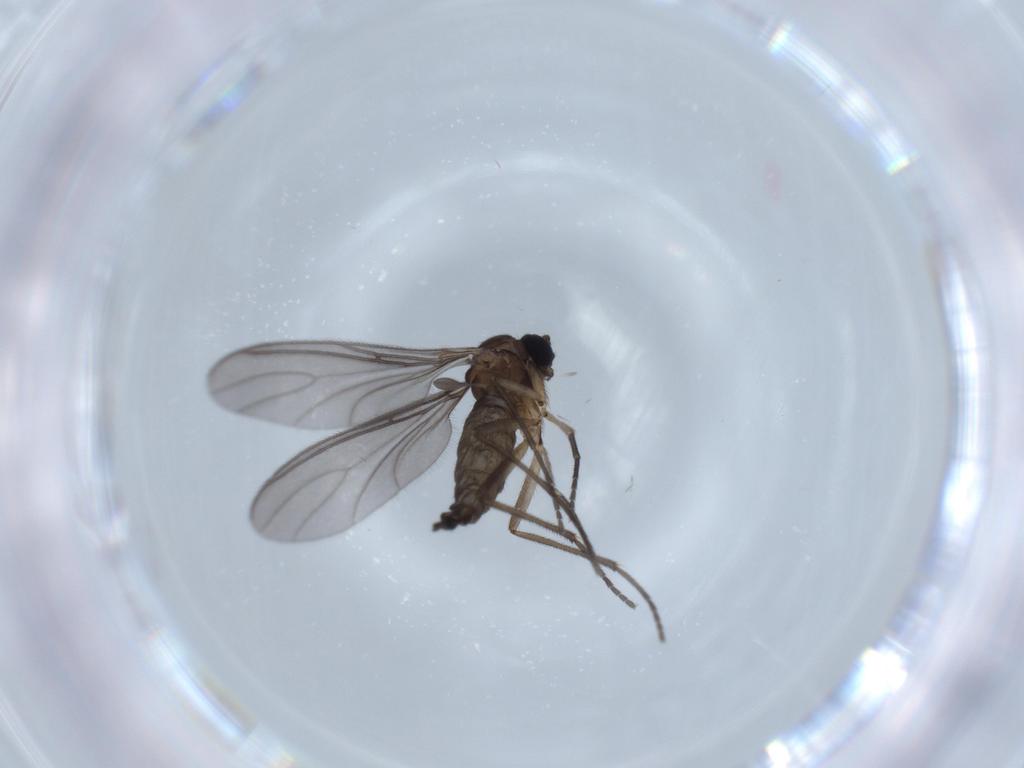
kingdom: Animalia
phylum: Arthropoda
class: Insecta
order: Diptera
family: Sciaridae
